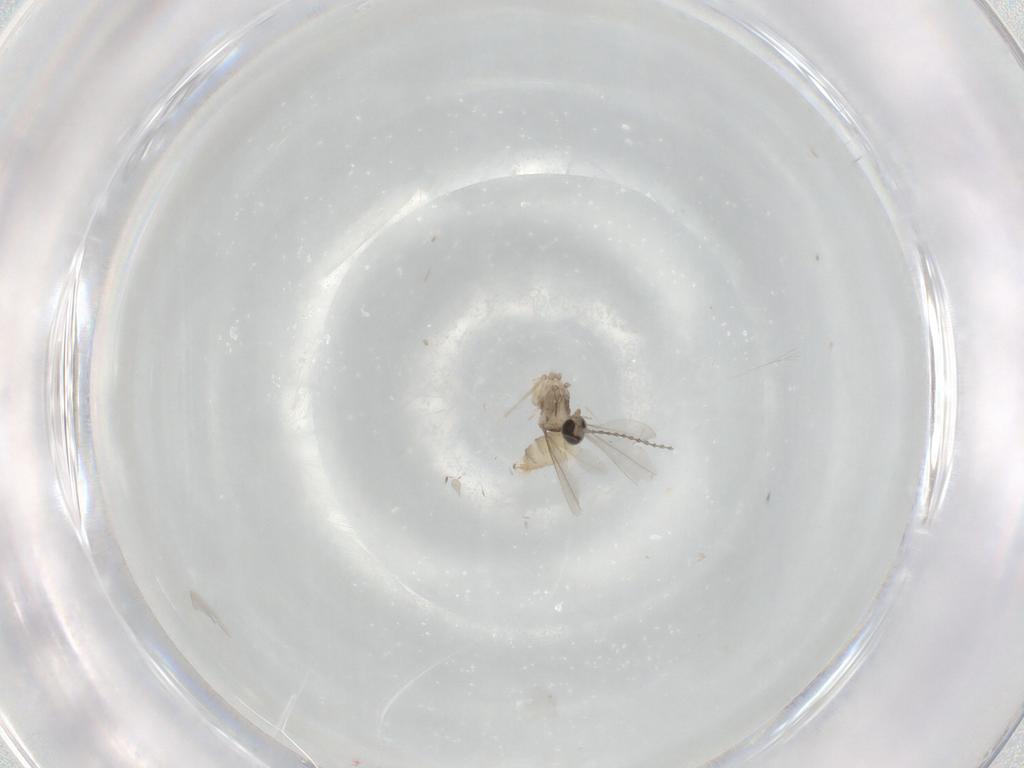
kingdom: Animalia
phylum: Arthropoda
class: Insecta
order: Diptera
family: Cecidomyiidae
